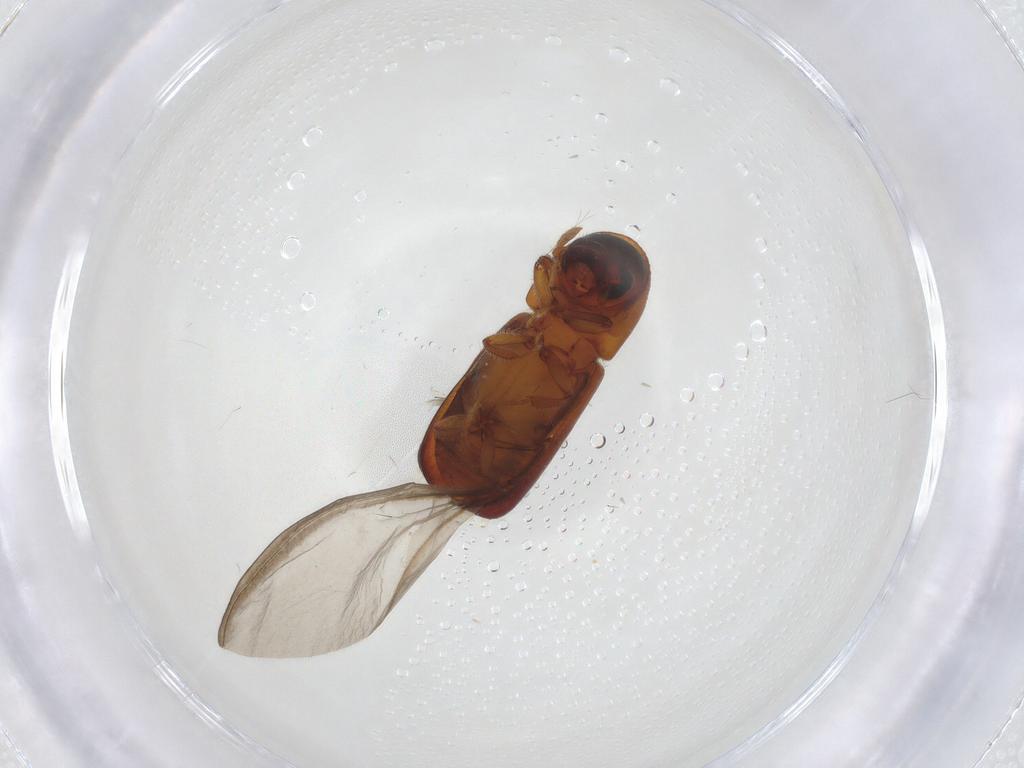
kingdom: Animalia
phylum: Arthropoda
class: Insecta
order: Coleoptera
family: Curculionidae
